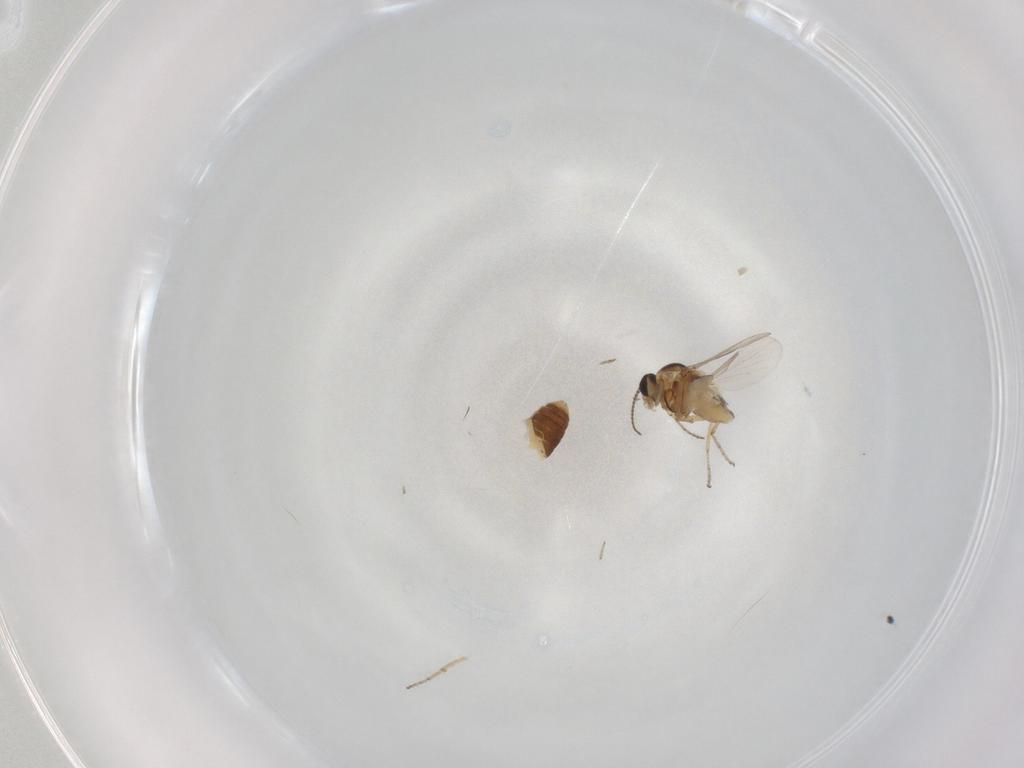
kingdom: Animalia
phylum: Arthropoda
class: Insecta
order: Diptera
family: Ceratopogonidae
